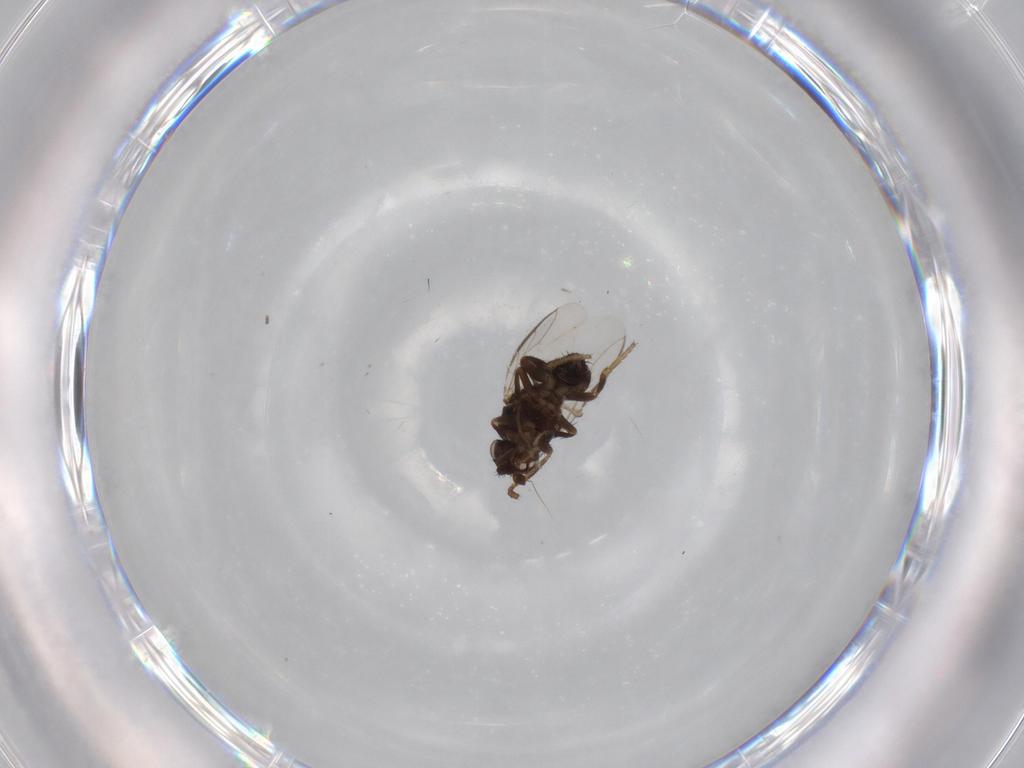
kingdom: Animalia
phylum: Arthropoda
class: Insecta
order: Diptera
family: Sphaeroceridae
